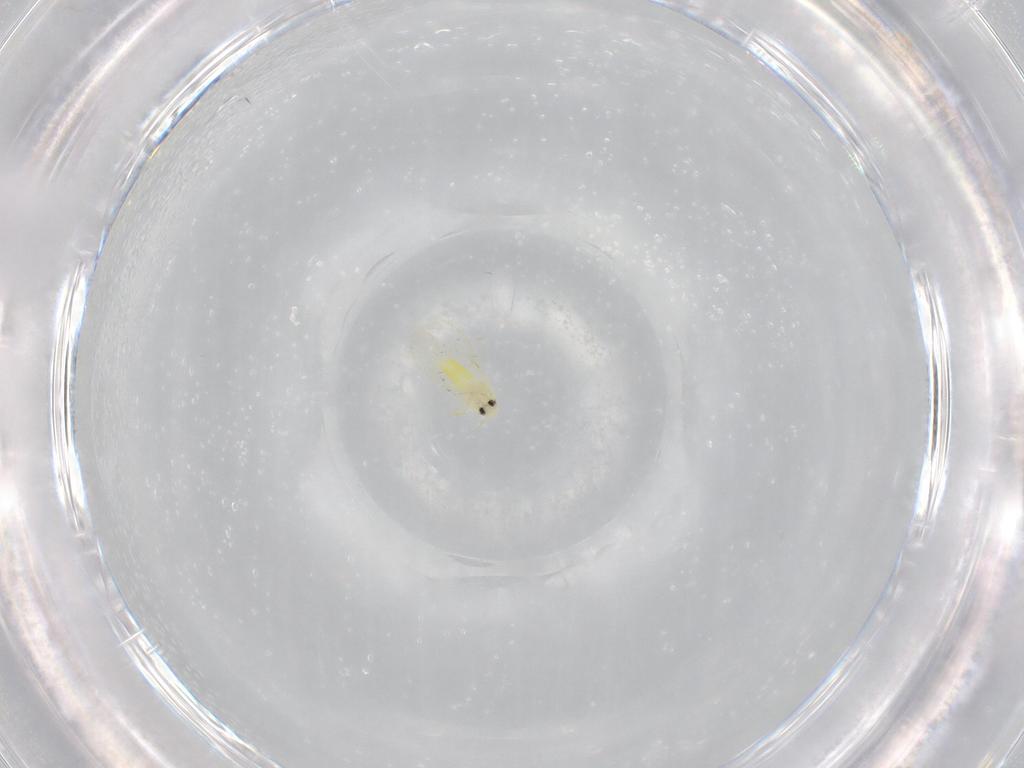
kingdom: Animalia
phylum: Arthropoda
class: Insecta
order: Hemiptera
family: Aleyrodidae
